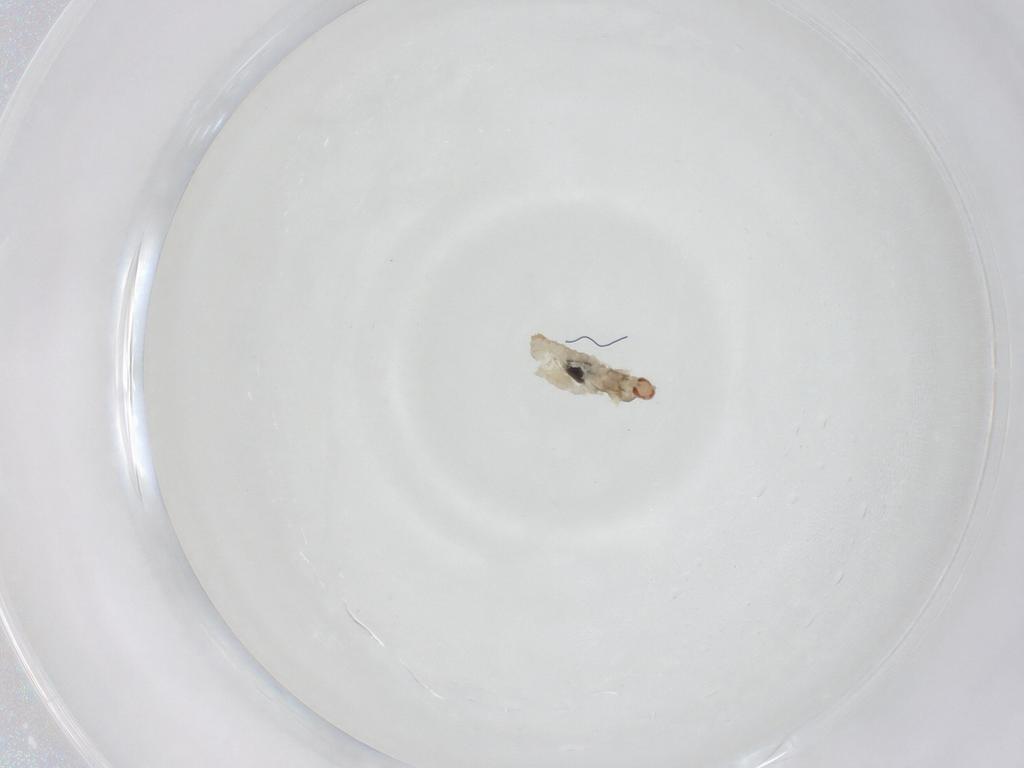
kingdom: Animalia
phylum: Arthropoda
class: Insecta
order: Diptera
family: Cecidomyiidae
